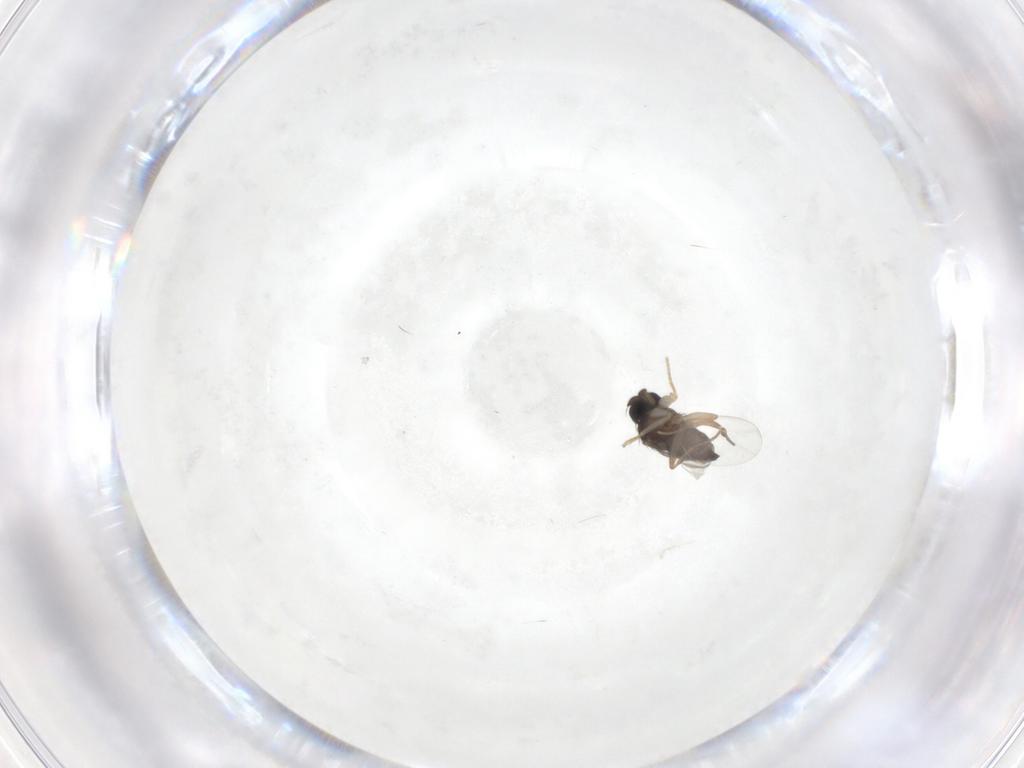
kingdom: Animalia
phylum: Arthropoda
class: Insecta
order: Diptera
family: Phoridae
